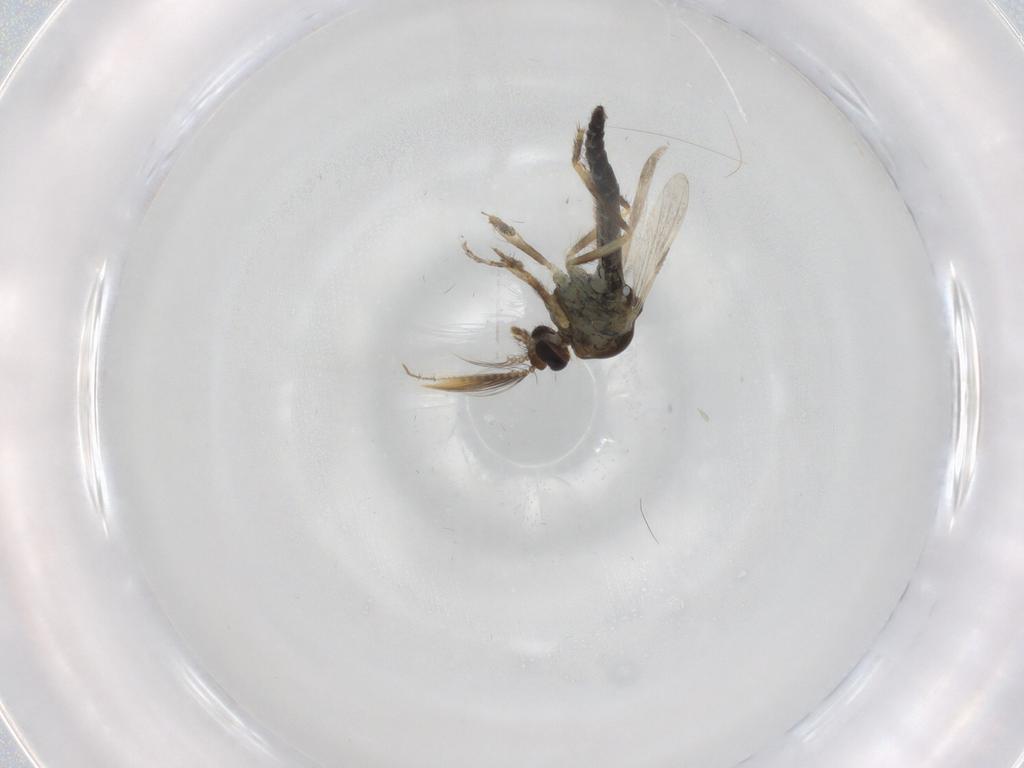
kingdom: Animalia
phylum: Arthropoda
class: Insecta
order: Diptera
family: Ceratopogonidae
